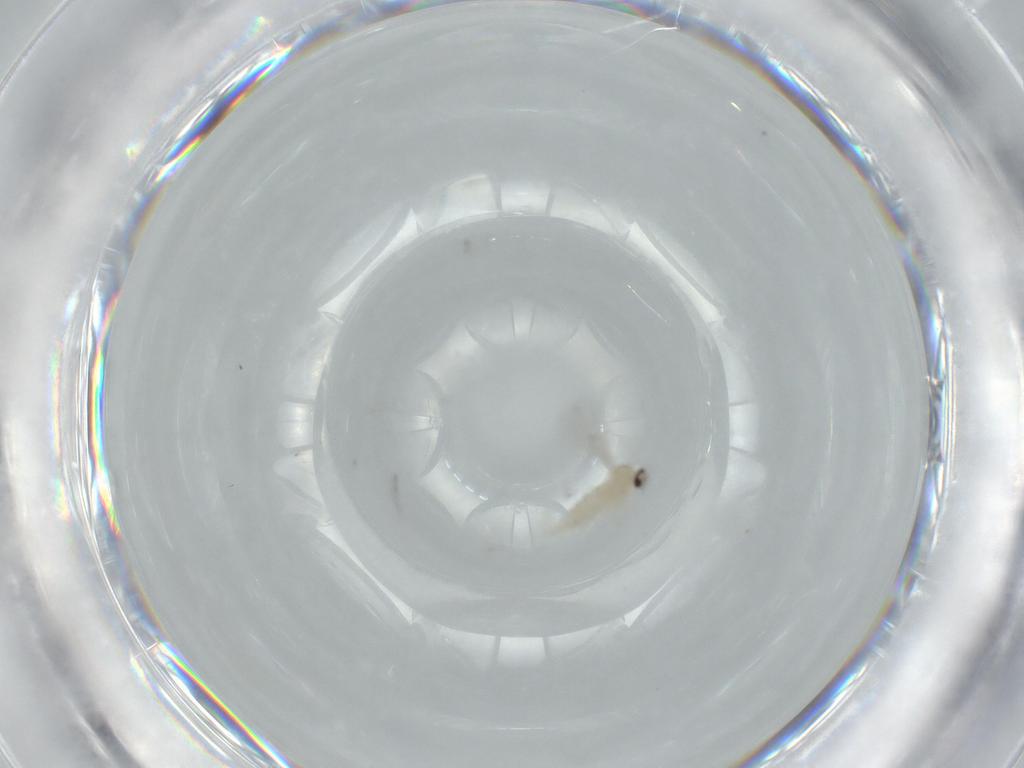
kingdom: Animalia
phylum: Arthropoda
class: Insecta
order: Diptera
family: Cecidomyiidae
